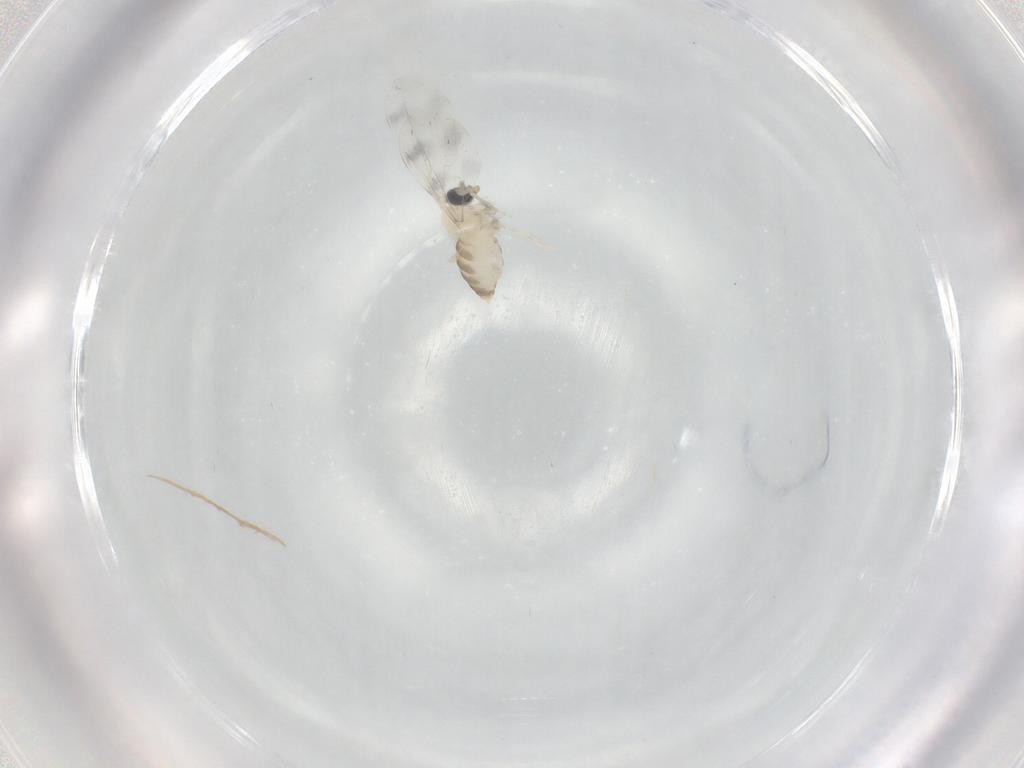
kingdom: Animalia
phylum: Arthropoda
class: Insecta
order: Diptera
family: Cecidomyiidae
